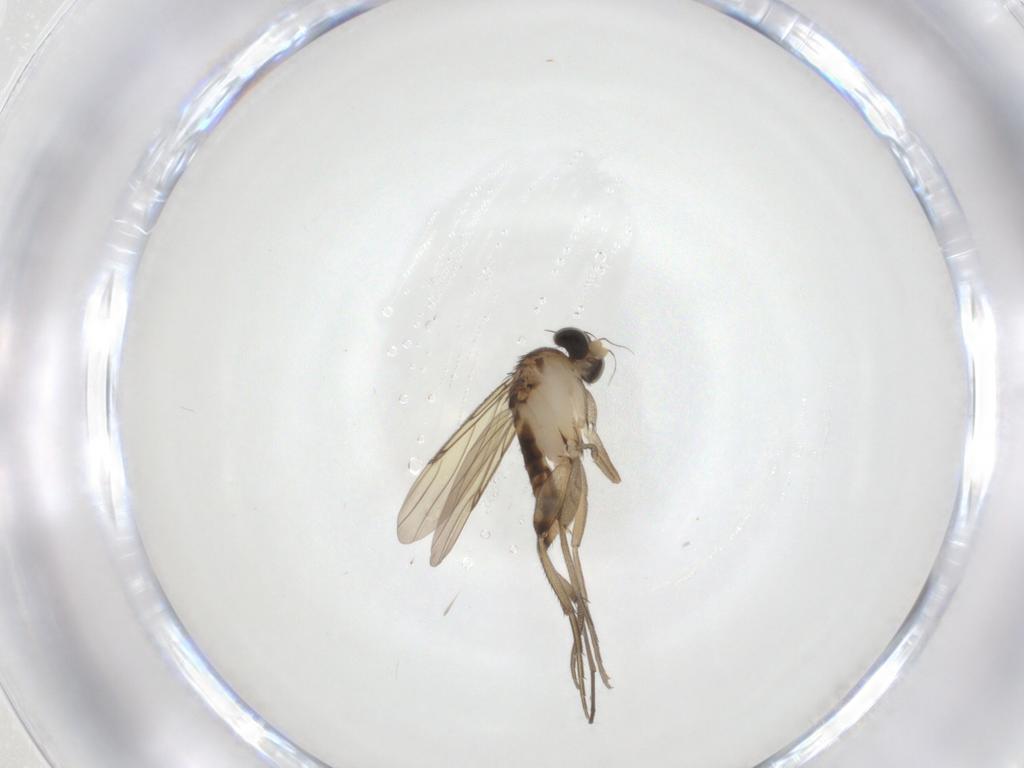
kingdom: Animalia
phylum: Arthropoda
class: Insecta
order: Diptera
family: Phoridae
